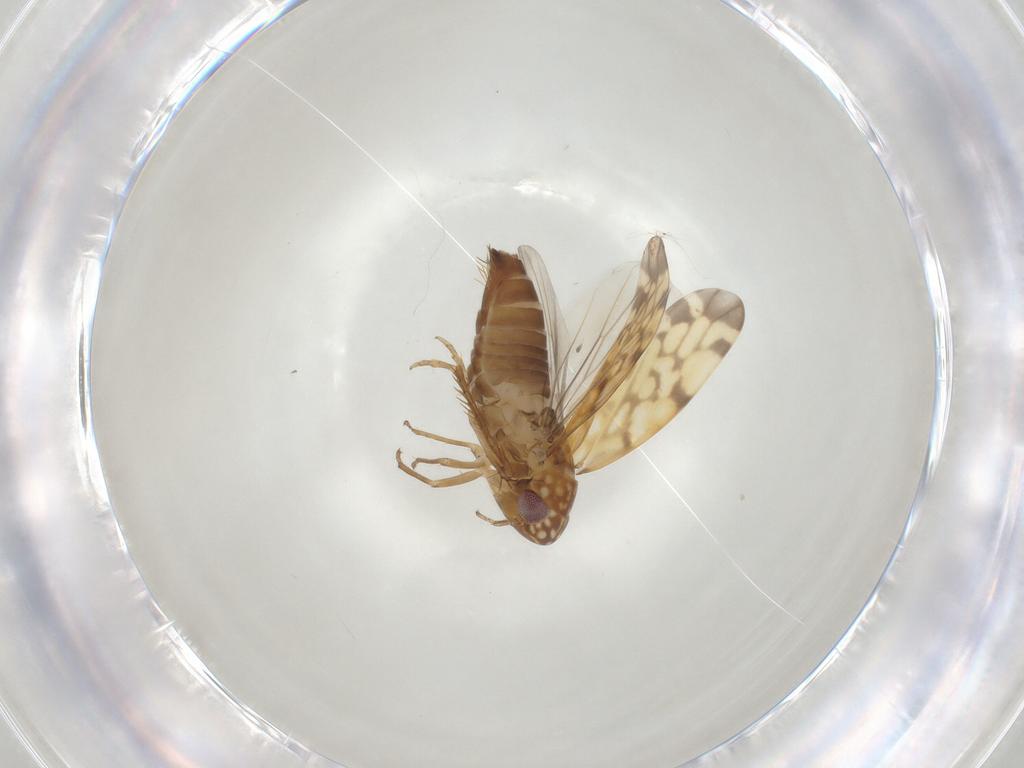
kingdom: Animalia
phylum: Arthropoda
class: Insecta
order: Hemiptera
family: Cicadellidae
